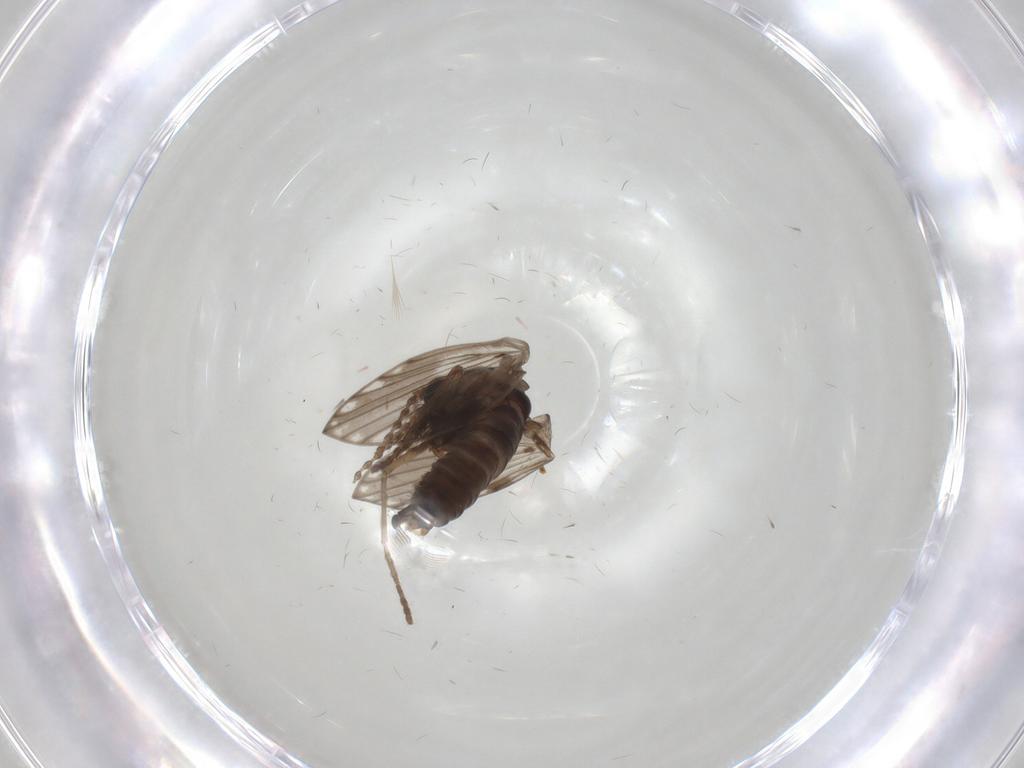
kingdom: Animalia
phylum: Arthropoda
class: Insecta
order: Diptera
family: Psychodidae
